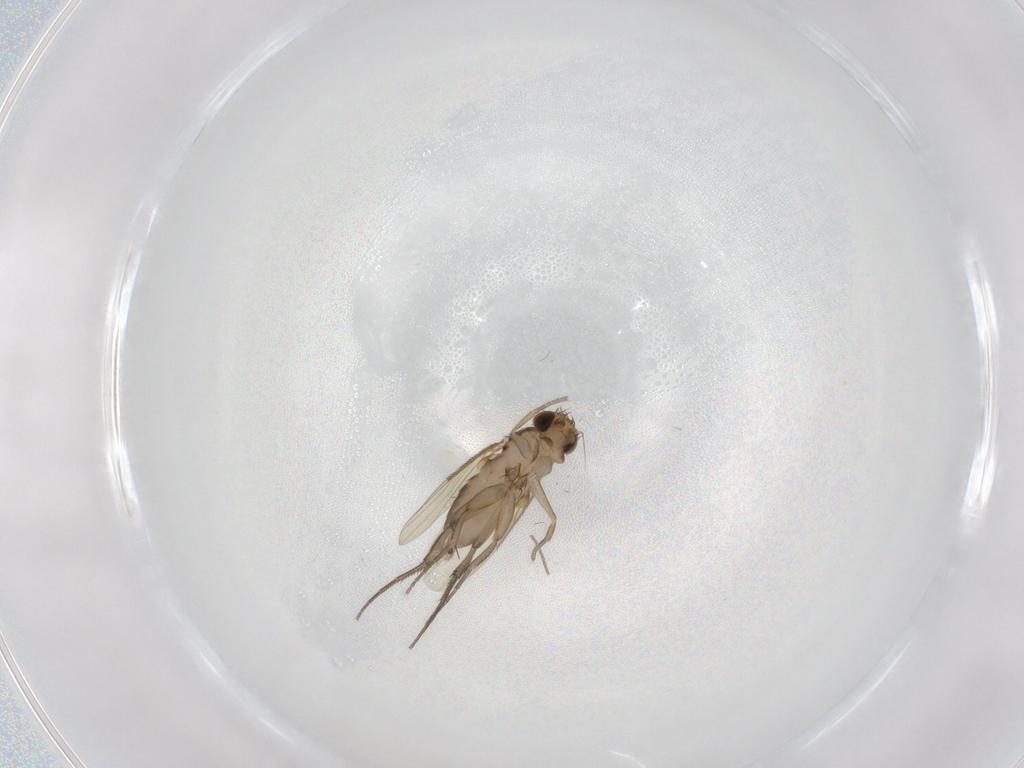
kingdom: Animalia
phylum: Arthropoda
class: Insecta
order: Diptera
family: Phoridae
